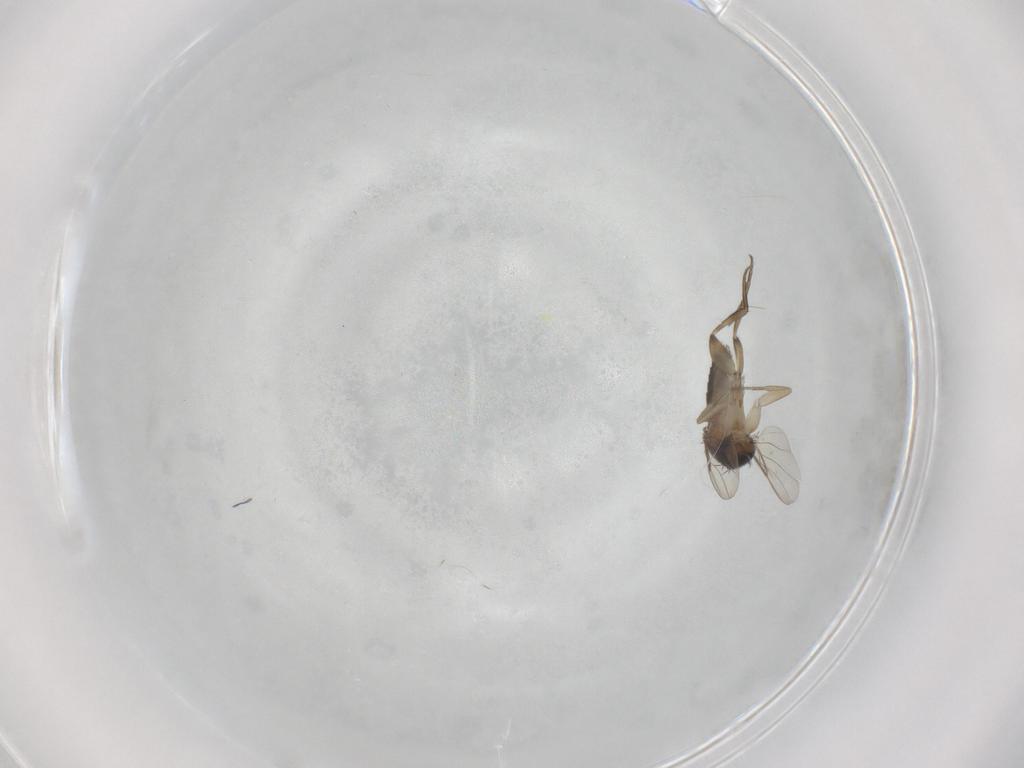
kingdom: Animalia
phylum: Arthropoda
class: Insecta
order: Diptera
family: Phoridae
